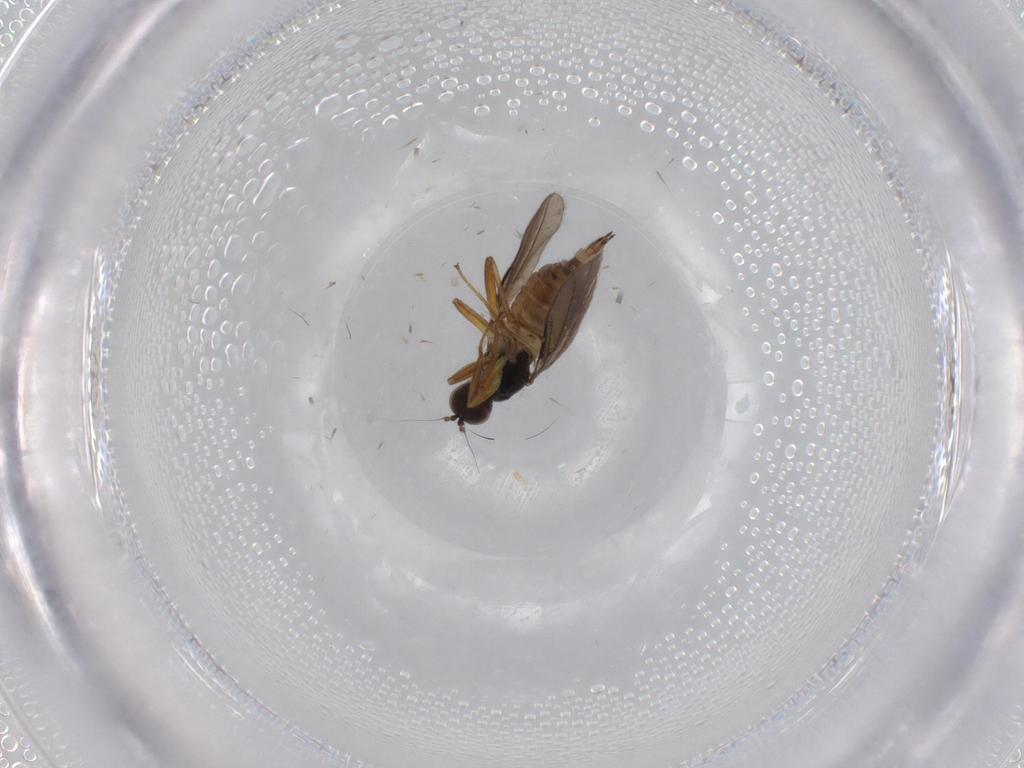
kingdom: Animalia
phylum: Arthropoda
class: Insecta
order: Diptera
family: Hybotidae
